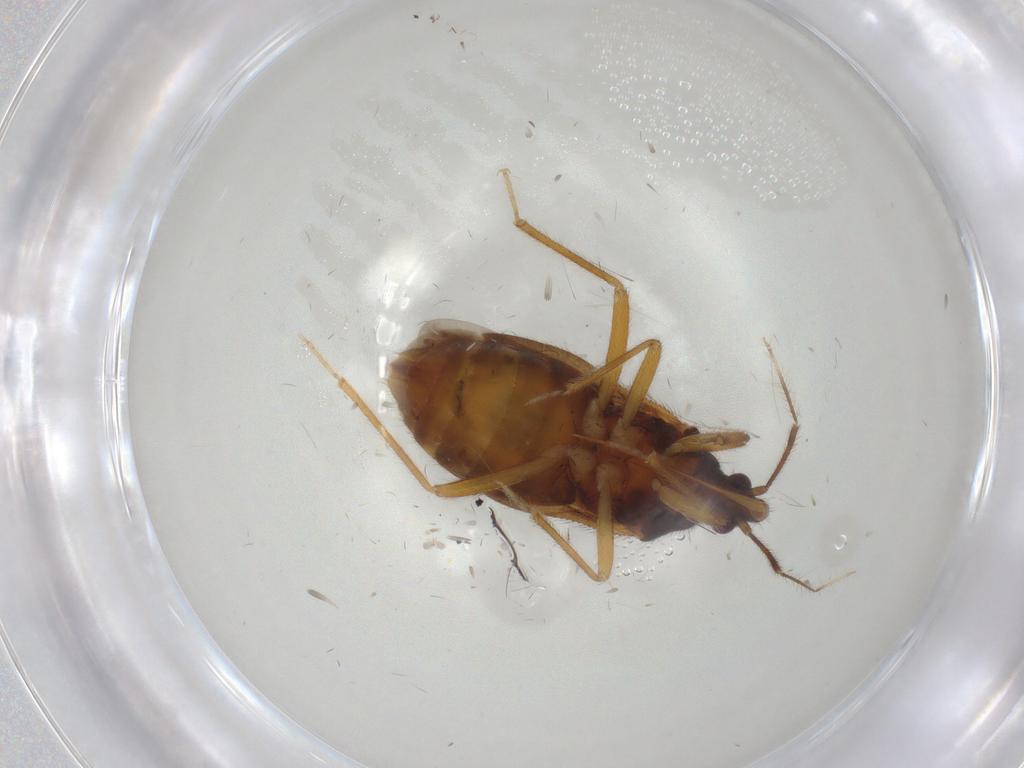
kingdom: Animalia
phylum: Arthropoda
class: Insecta
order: Hemiptera
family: Anthocoridae
